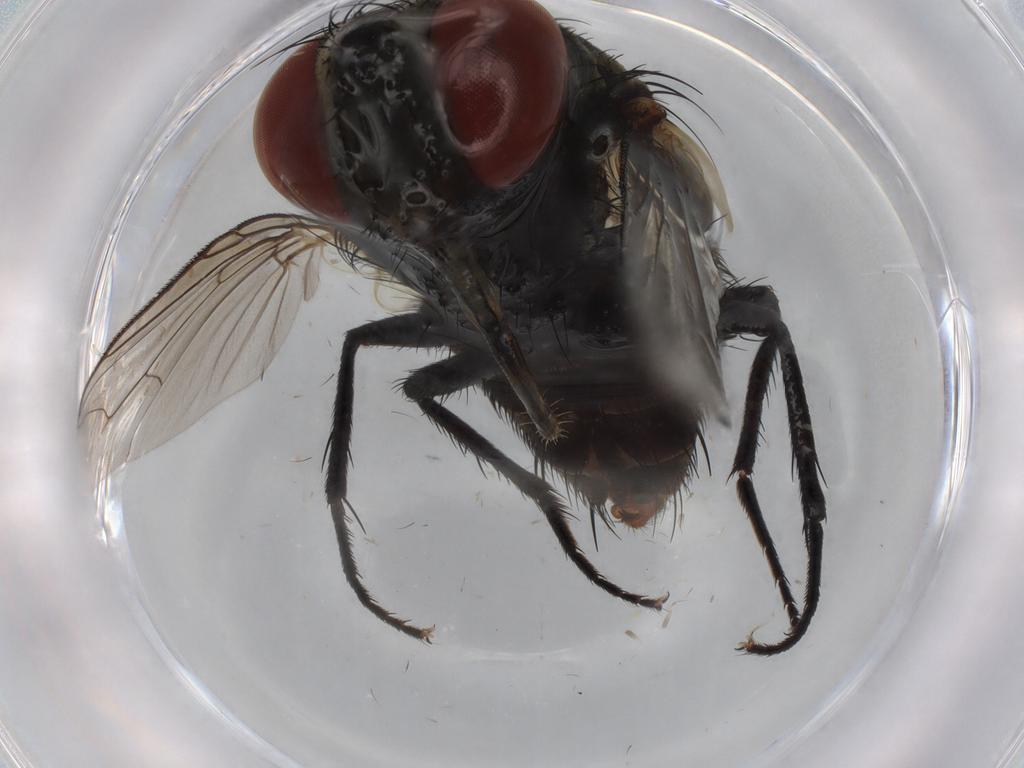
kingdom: Animalia
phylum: Arthropoda
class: Insecta
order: Diptera
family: Sarcophagidae
